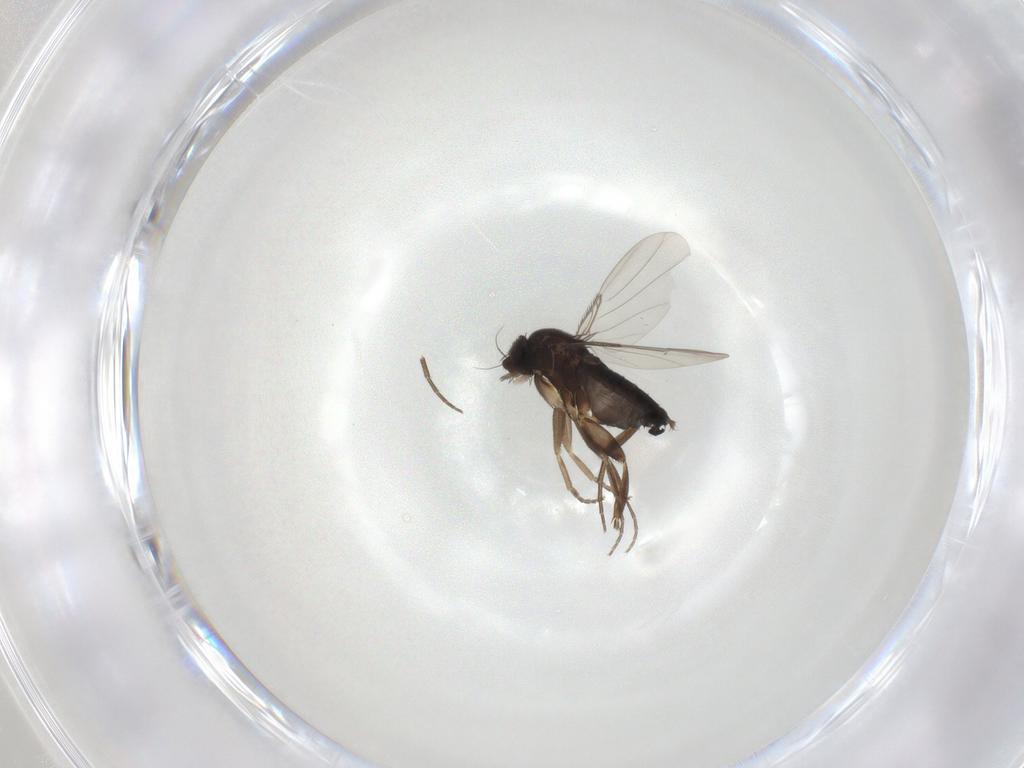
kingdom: Animalia
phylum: Arthropoda
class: Insecta
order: Diptera
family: Phoridae
